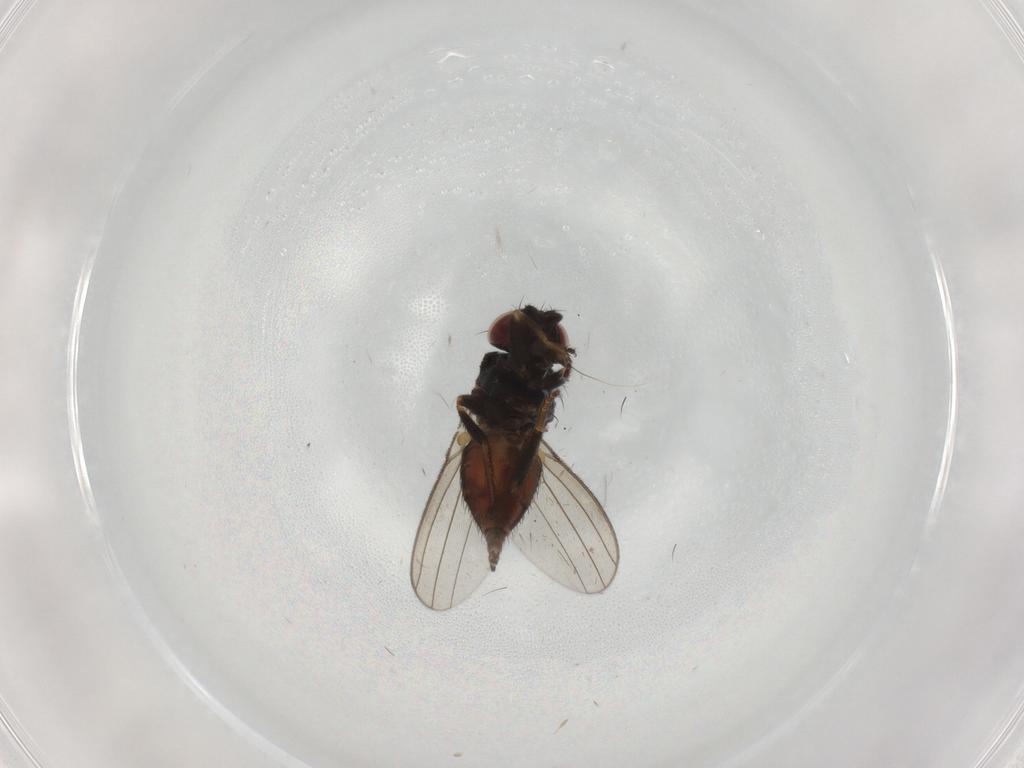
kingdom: Animalia
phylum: Arthropoda
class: Insecta
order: Diptera
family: Milichiidae
